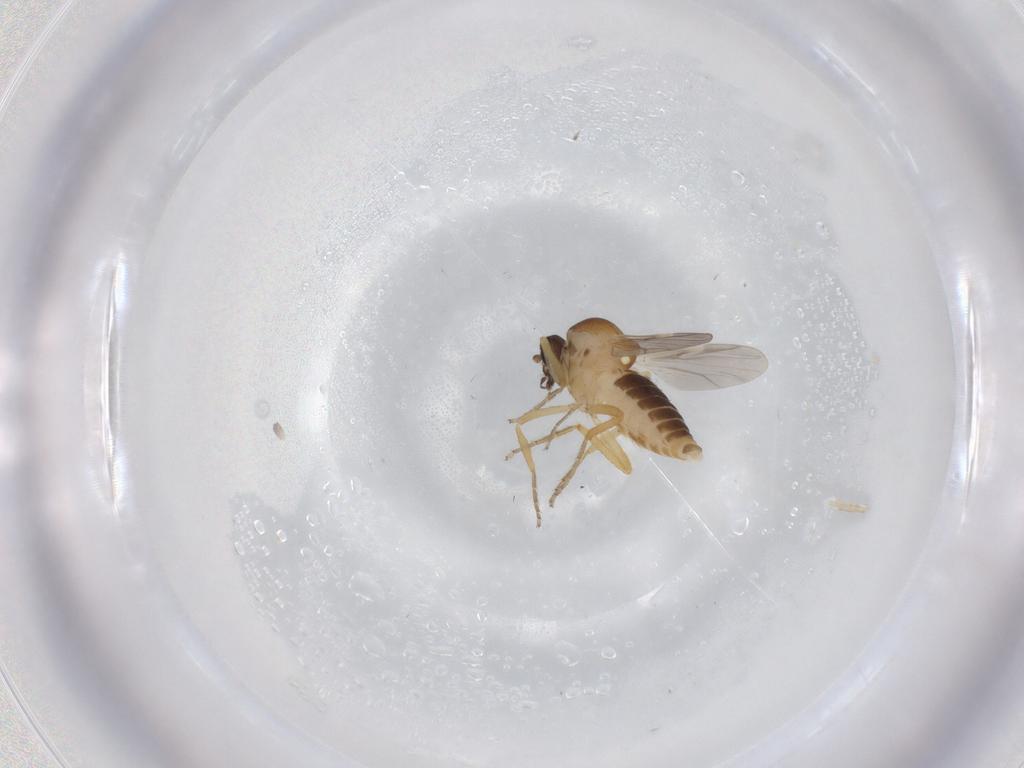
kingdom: Animalia
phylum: Arthropoda
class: Insecta
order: Diptera
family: Ceratopogonidae
